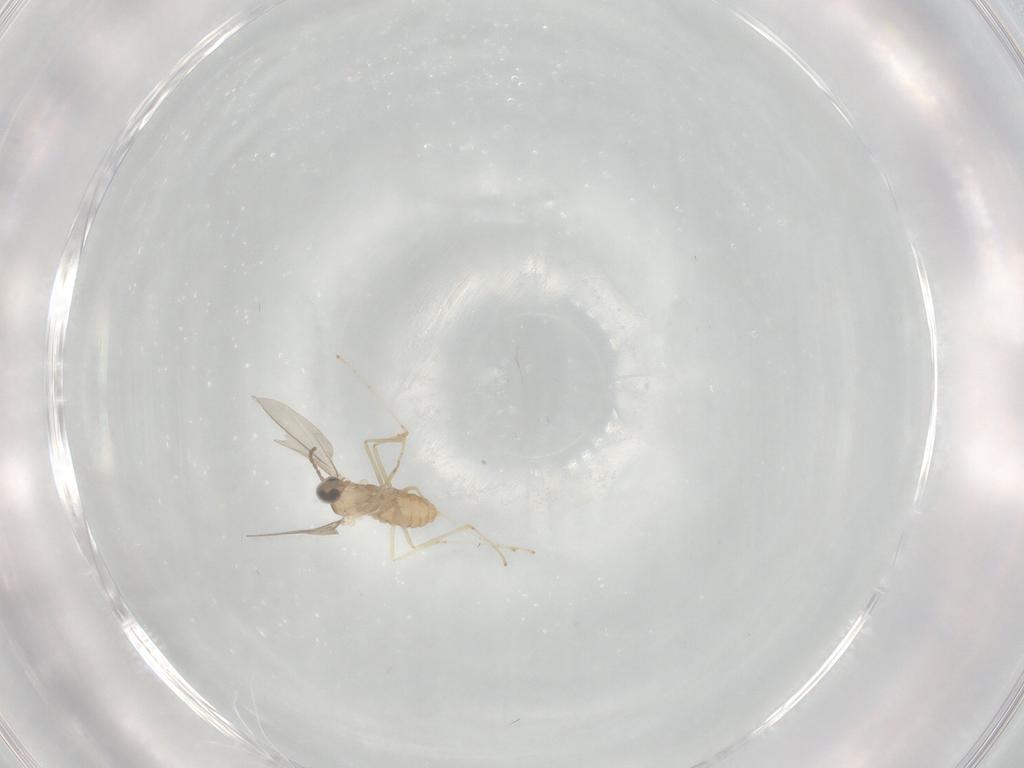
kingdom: Animalia
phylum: Arthropoda
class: Insecta
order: Diptera
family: Cecidomyiidae
